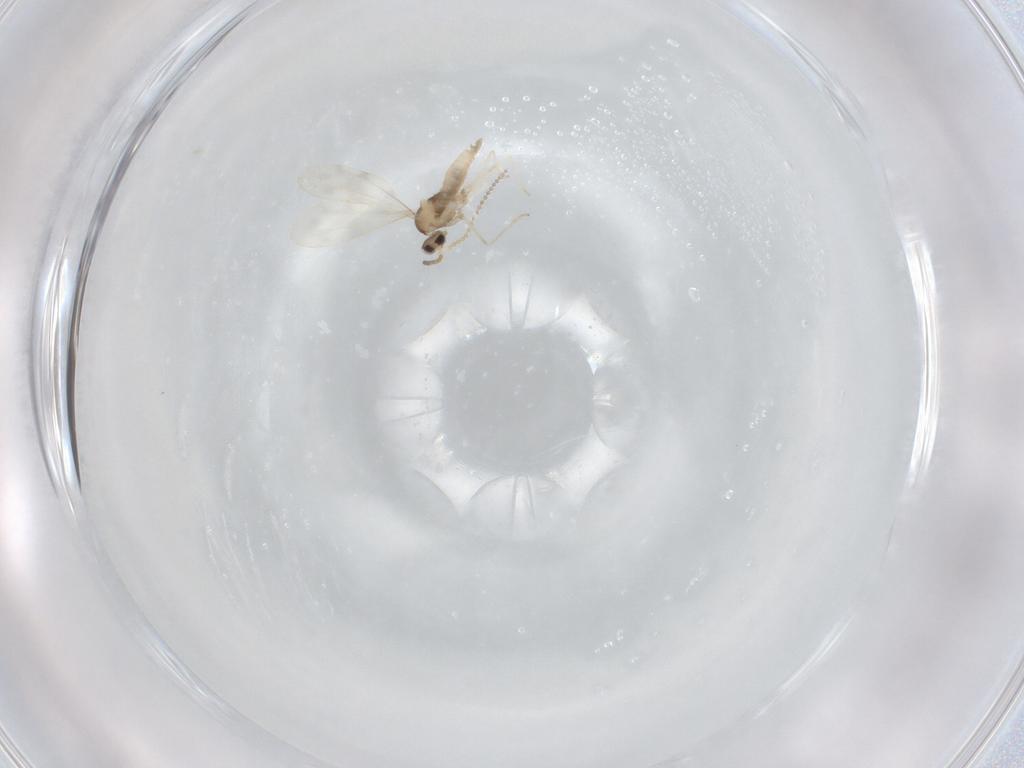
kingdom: Animalia
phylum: Arthropoda
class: Insecta
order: Diptera
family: Cecidomyiidae
